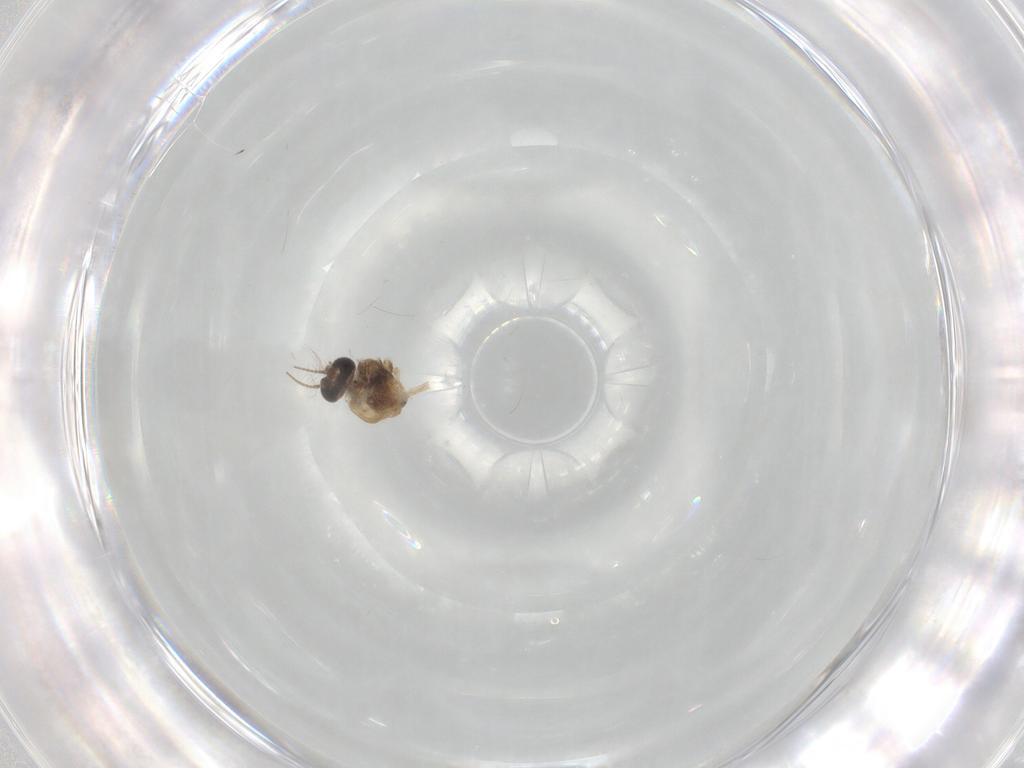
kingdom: Animalia
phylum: Arthropoda
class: Insecta
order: Diptera
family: Chironomidae
